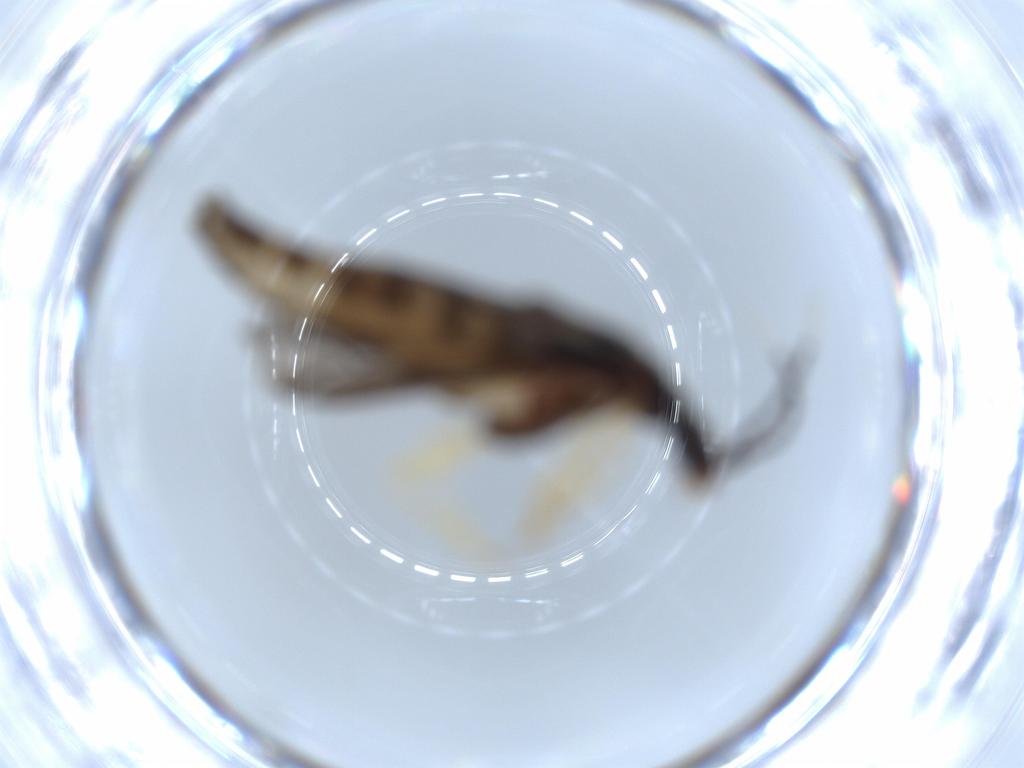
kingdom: Animalia
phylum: Arthropoda
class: Insecta
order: Coleoptera
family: Cantharidae
